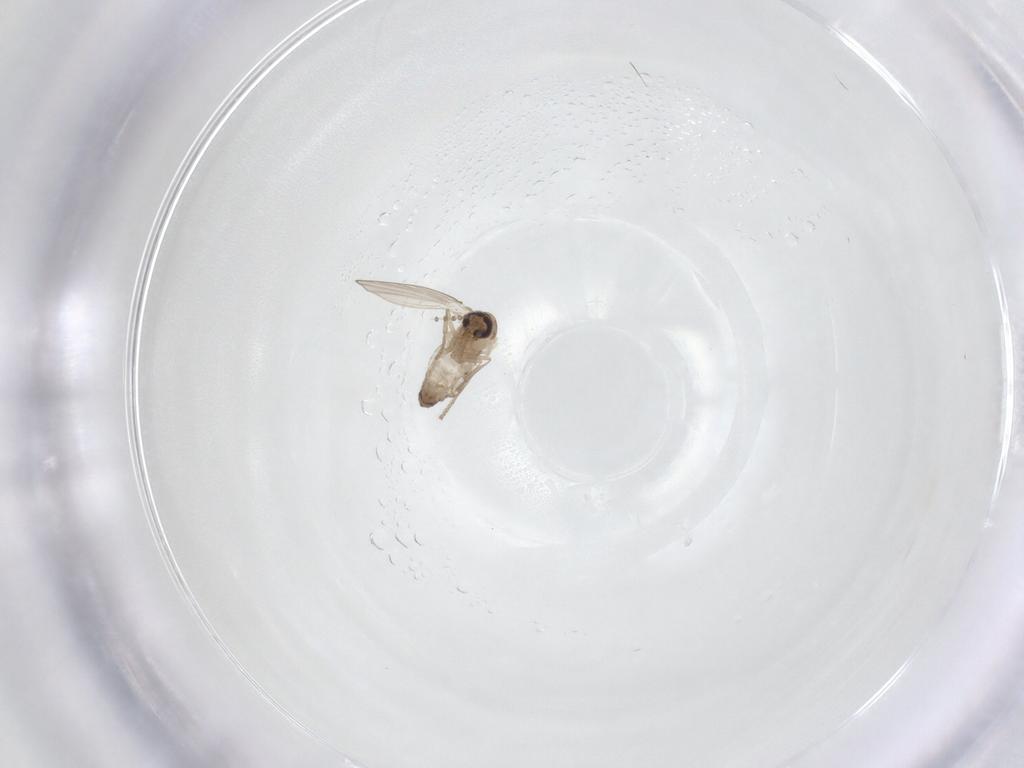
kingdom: Animalia
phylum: Arthropoda
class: Insecta
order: Diptera
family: Psychodidae
